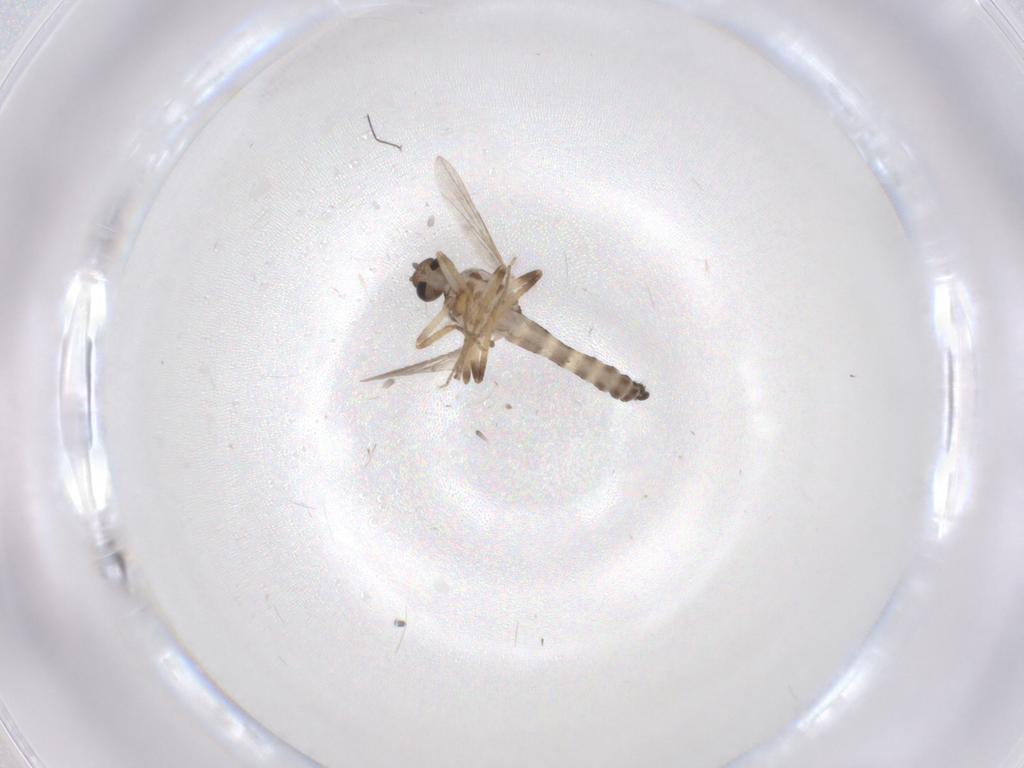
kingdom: Animalia
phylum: Arthropoda
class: Insecta
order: Diptera
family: Ceratopogonidae
